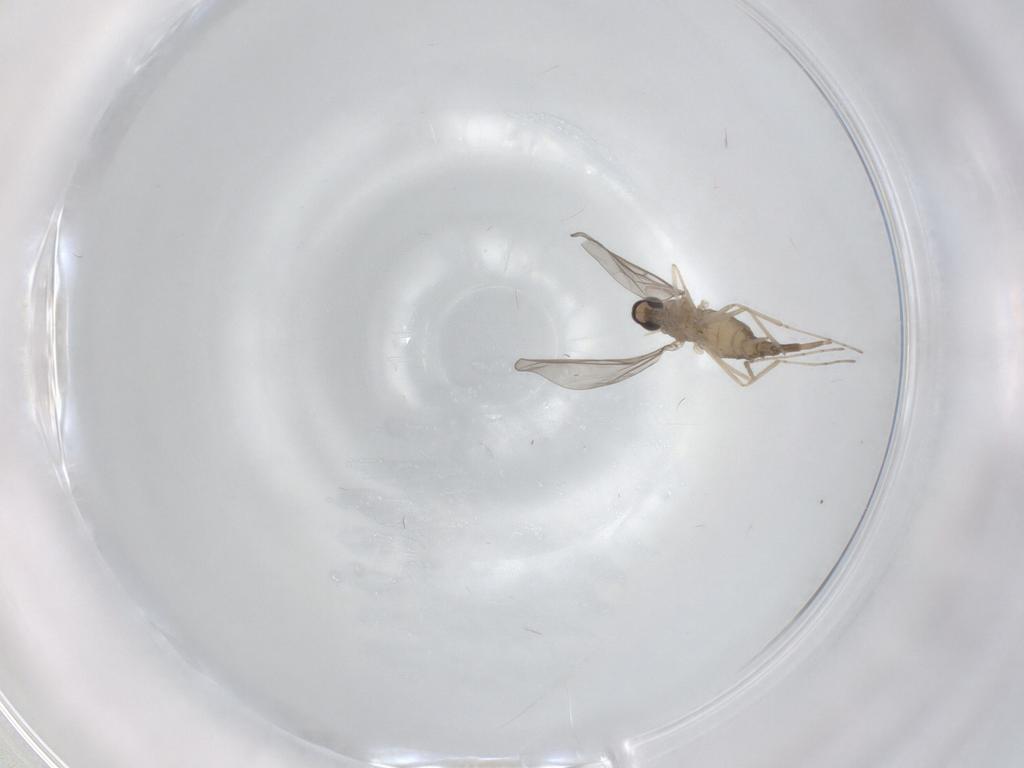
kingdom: Animalia
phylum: Arthropoda
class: Insecta
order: Diptera
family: Cecidomyiidae
